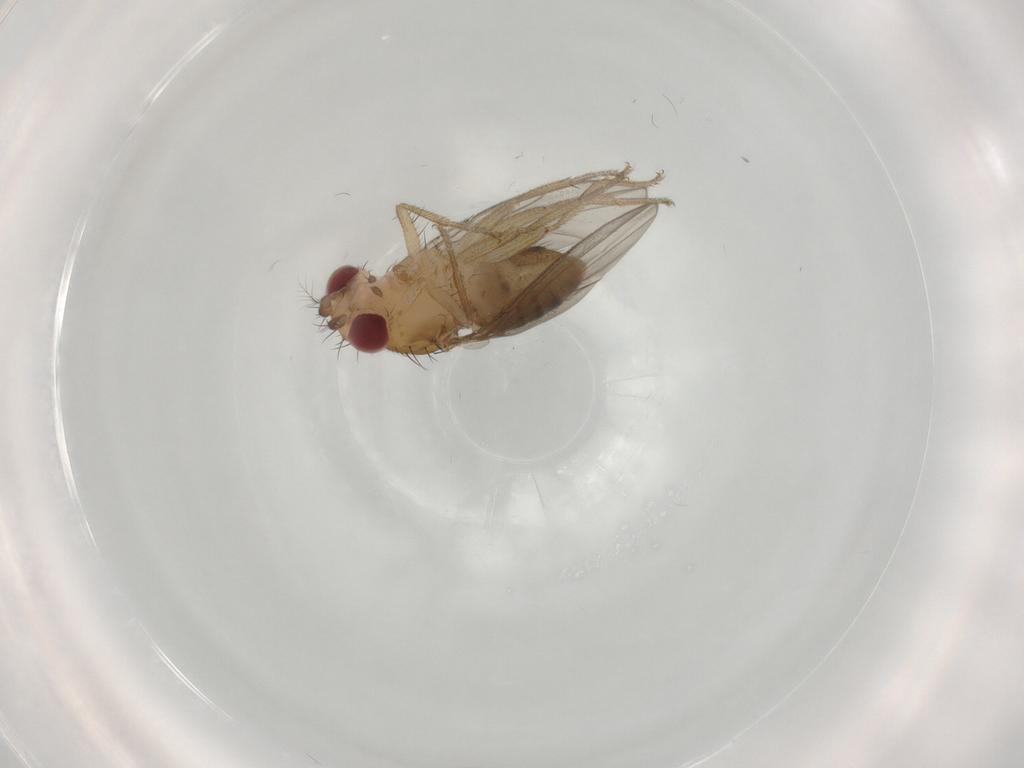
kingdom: Animalia
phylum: Arthropoda
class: Insecta
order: Diptera
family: Drosophilidae
